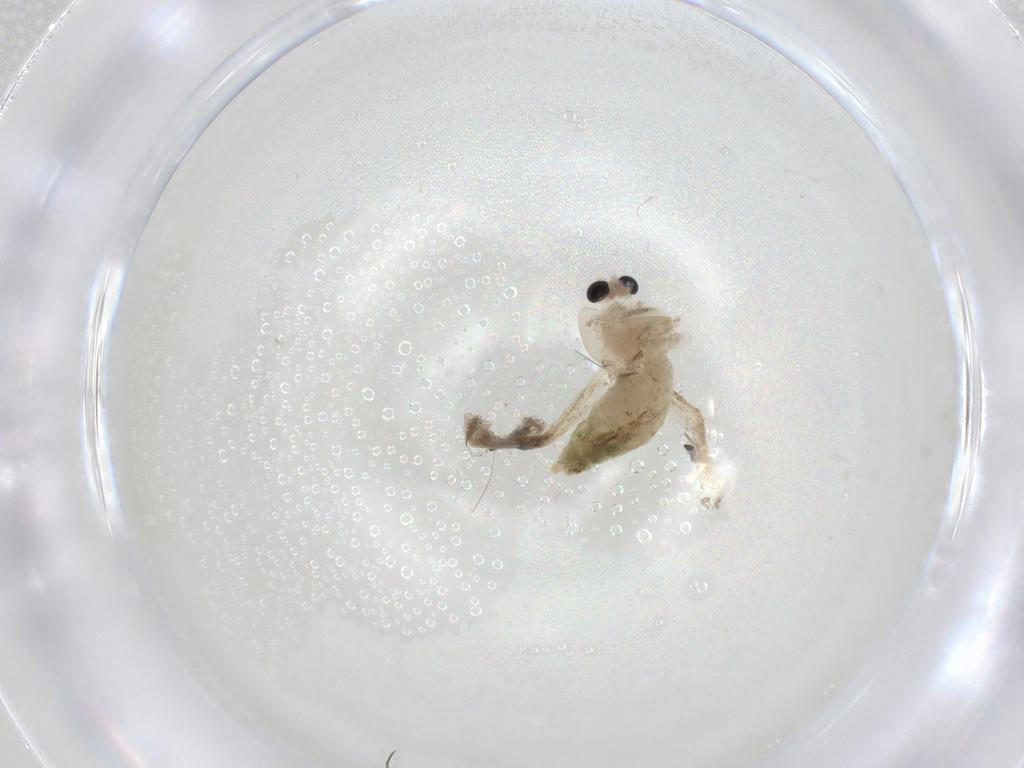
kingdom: Animalia
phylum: Arthropoda
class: Insecta
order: Diptera
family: Chironomidae
